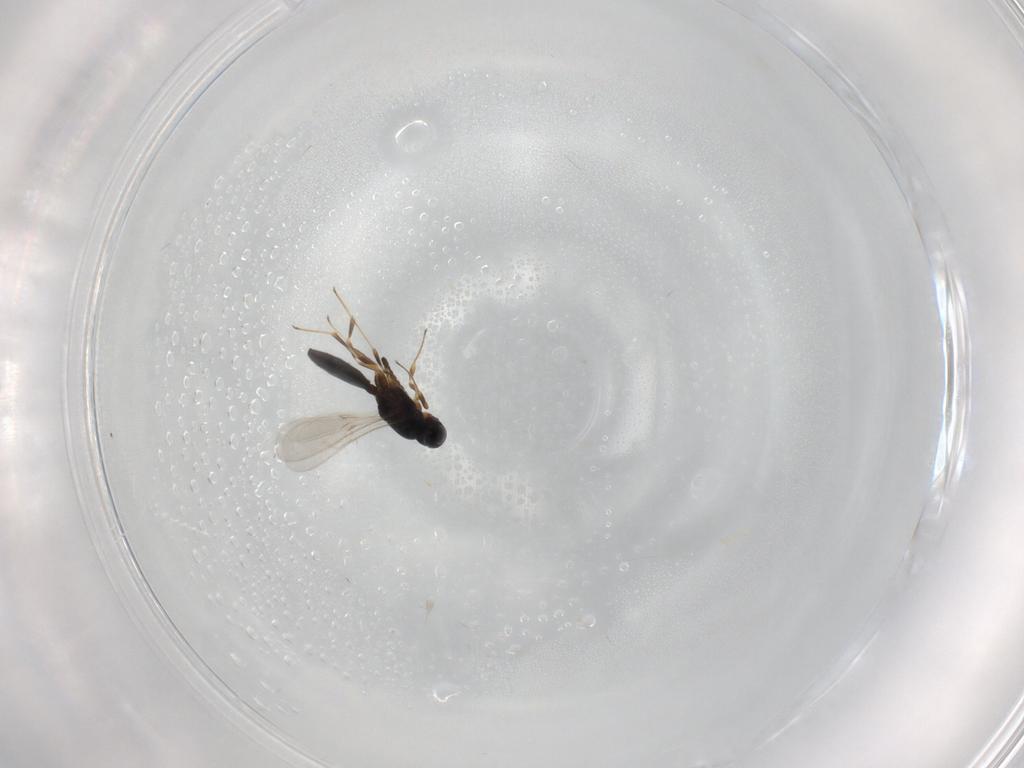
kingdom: Animalia
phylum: Arthropoda
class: Insecta
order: Hymenoptera
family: Scelionidae
